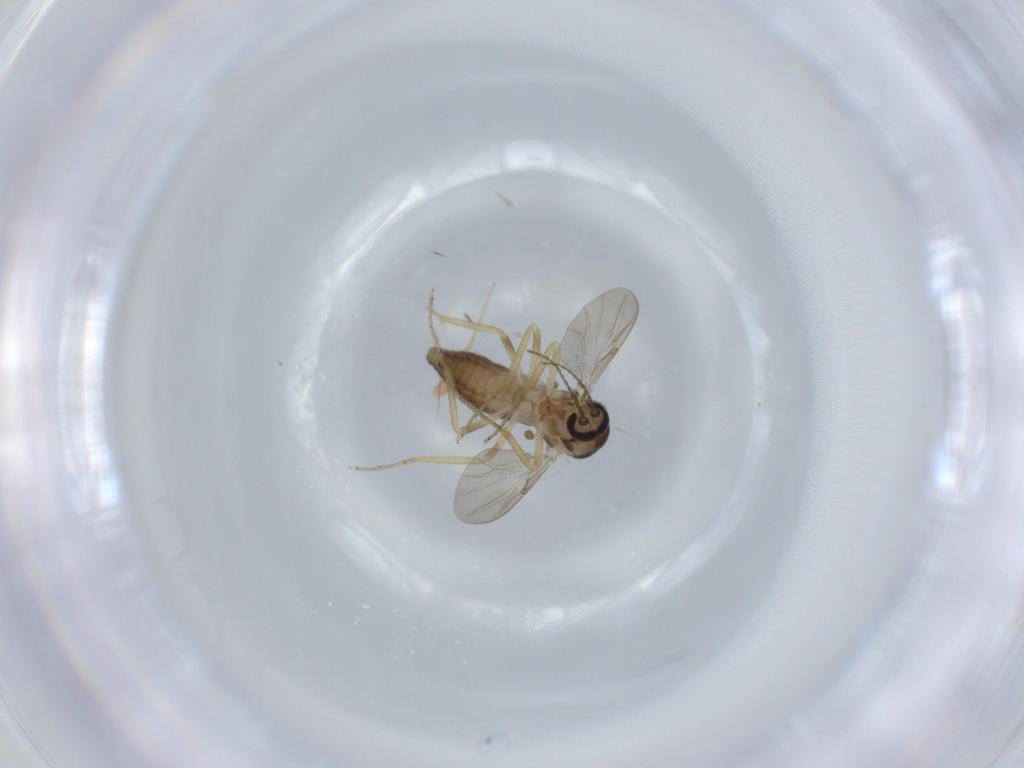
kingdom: Animalia
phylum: Arthropoda
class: Insecta
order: Diptera
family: Ceratopogonidae
